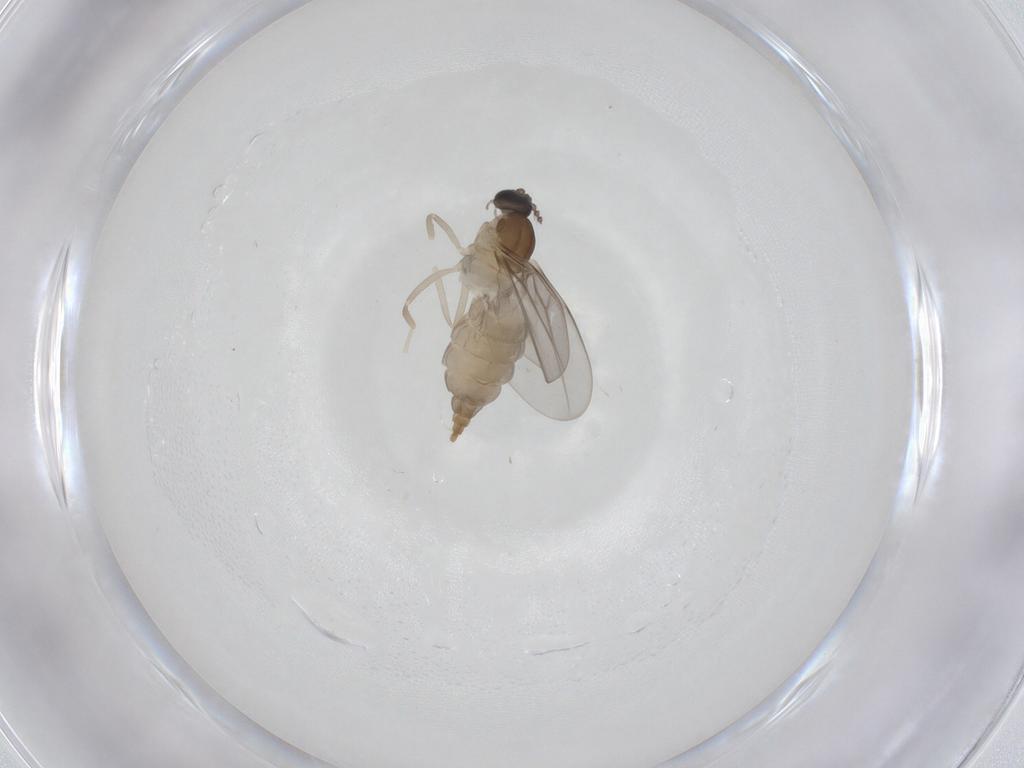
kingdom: Animalia
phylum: Arthropoda
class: Insecta
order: Diptera
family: Cecidomyiidae
